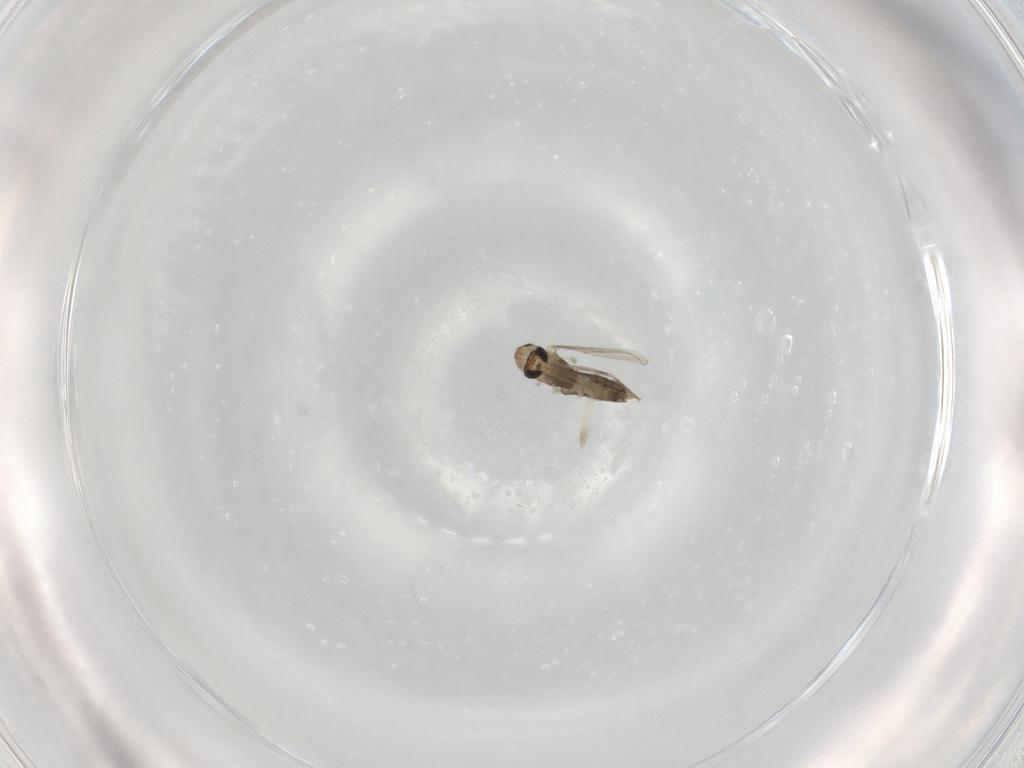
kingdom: Animalia
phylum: Arthropoda
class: Insecta
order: Diptera
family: Chironomidae
